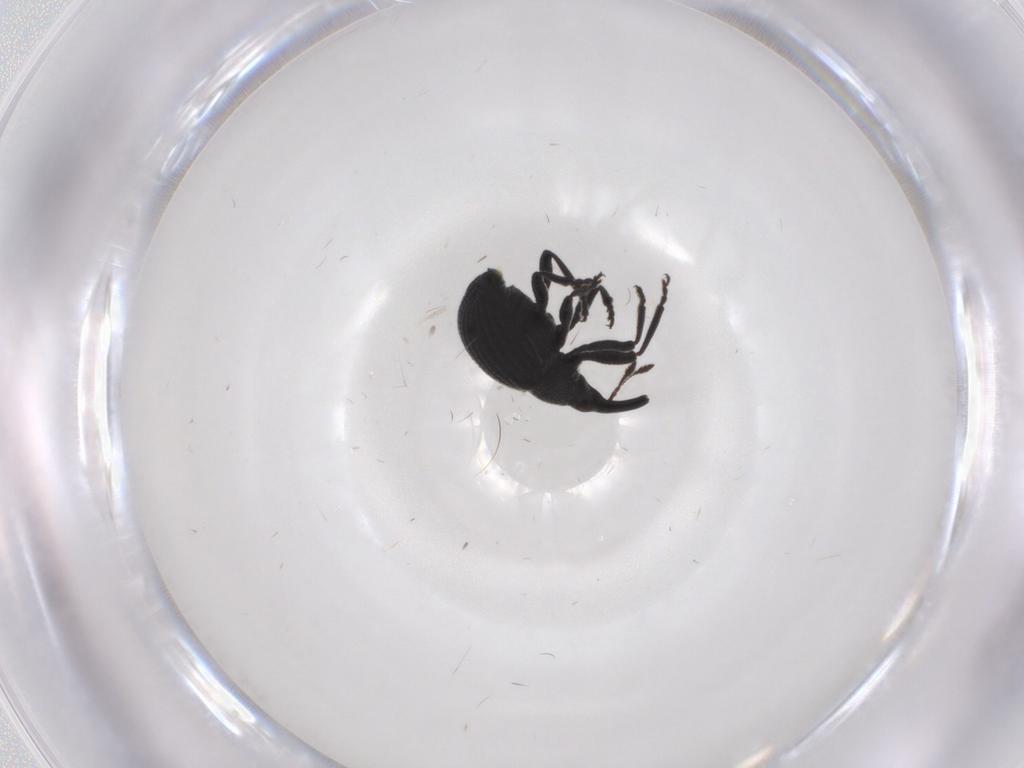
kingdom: Animalia
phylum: Arthropoda
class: Insecta
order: Coleoptera
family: Brentidae
